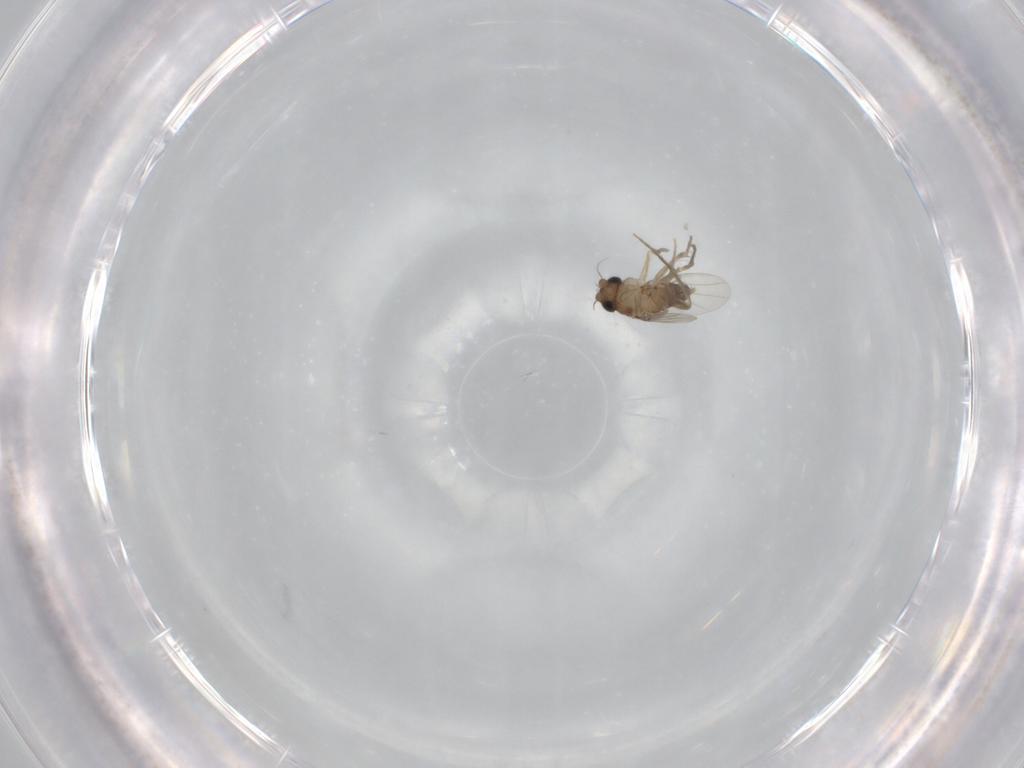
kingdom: Animalia
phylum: Arthropoda
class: Insecta
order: Diptera
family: Phoridae
